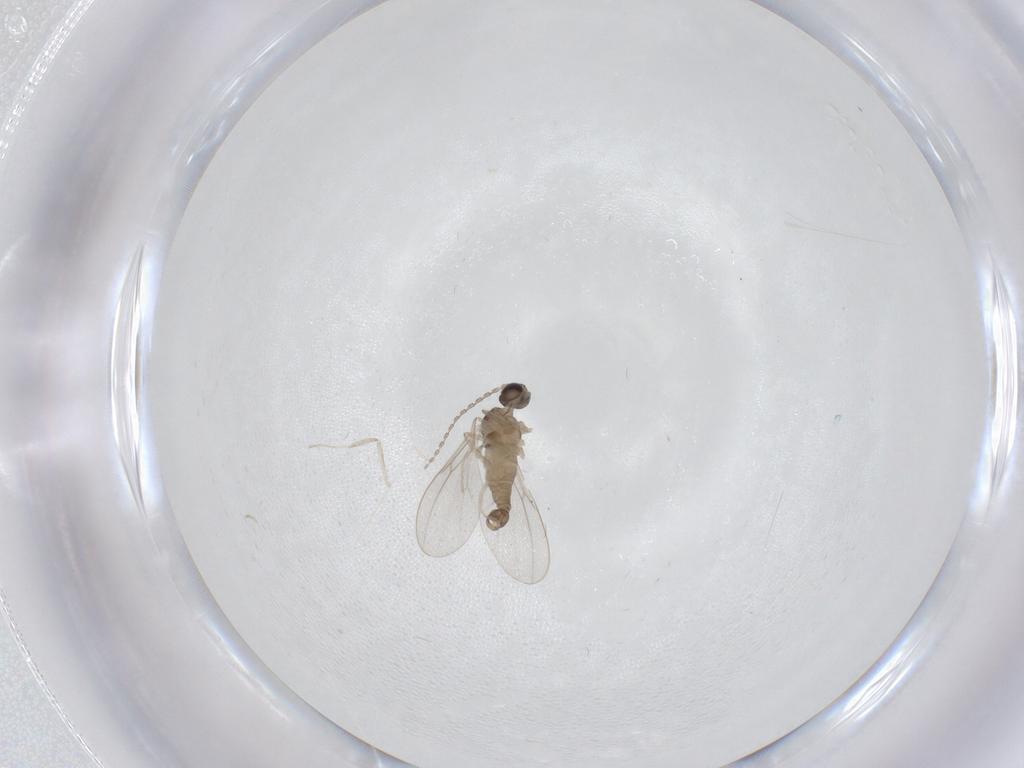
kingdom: Animalia
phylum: Arthropoda
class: Insecta
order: Diptera
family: Cecidomyiidae
